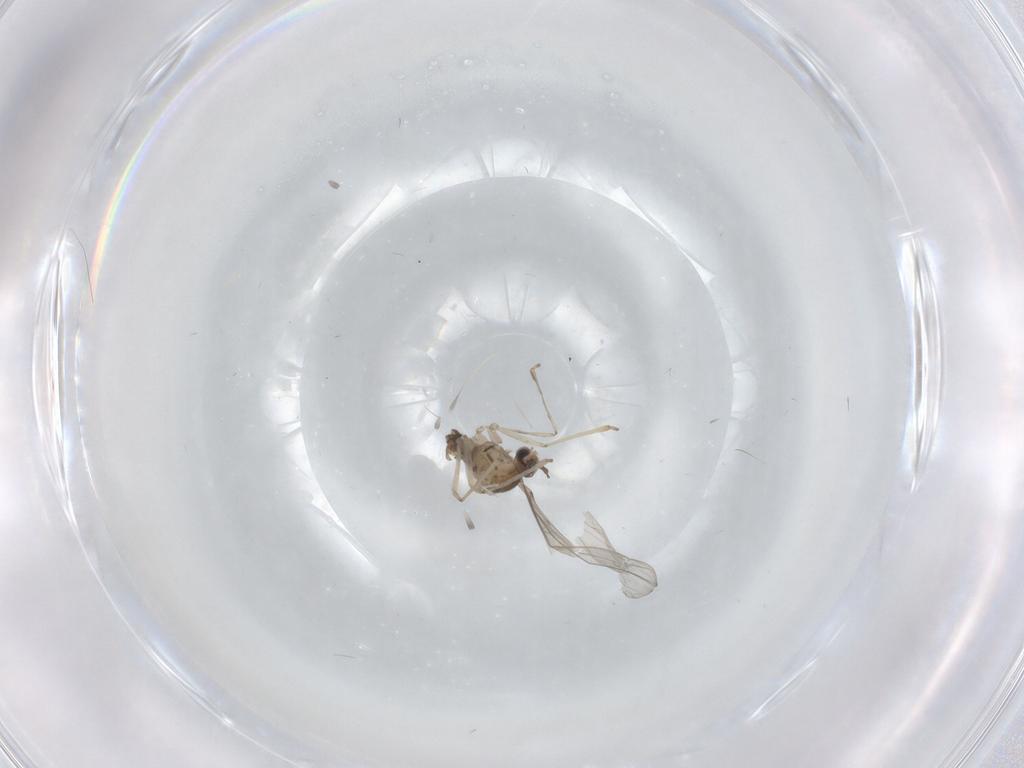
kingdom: Animalia
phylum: Arthropoda
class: Insecta
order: Diptera
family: Cecidomyiidae
